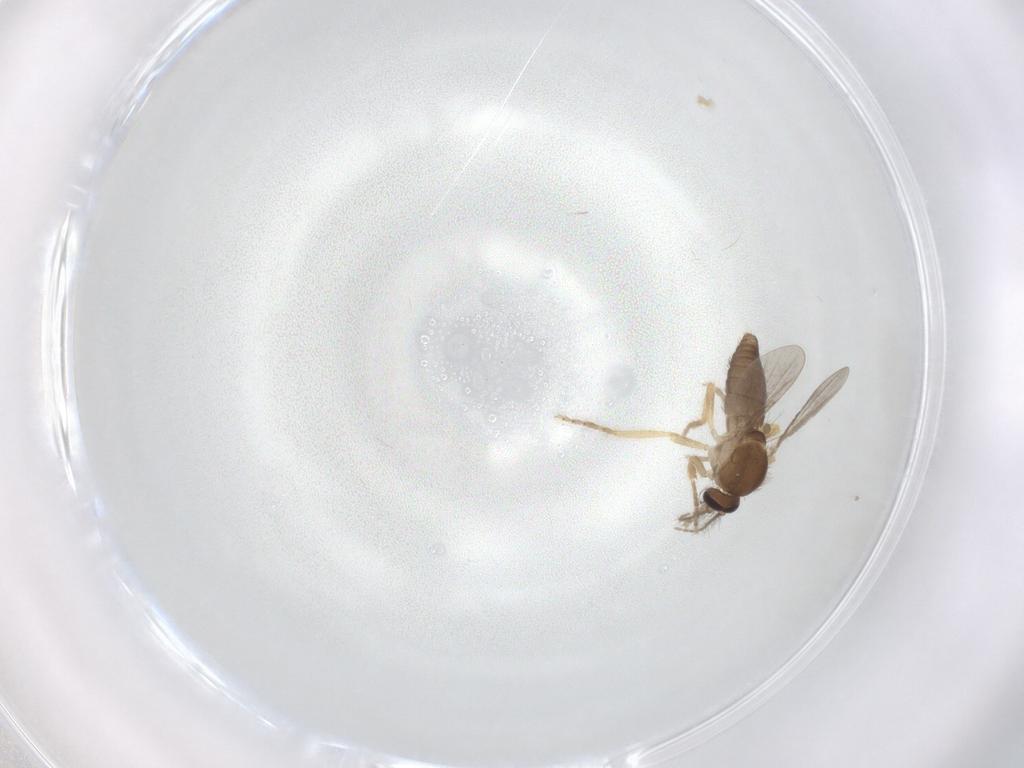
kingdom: Animalia
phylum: Arthropoda
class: Insecta
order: Diptera
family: Ceratopogonidae
